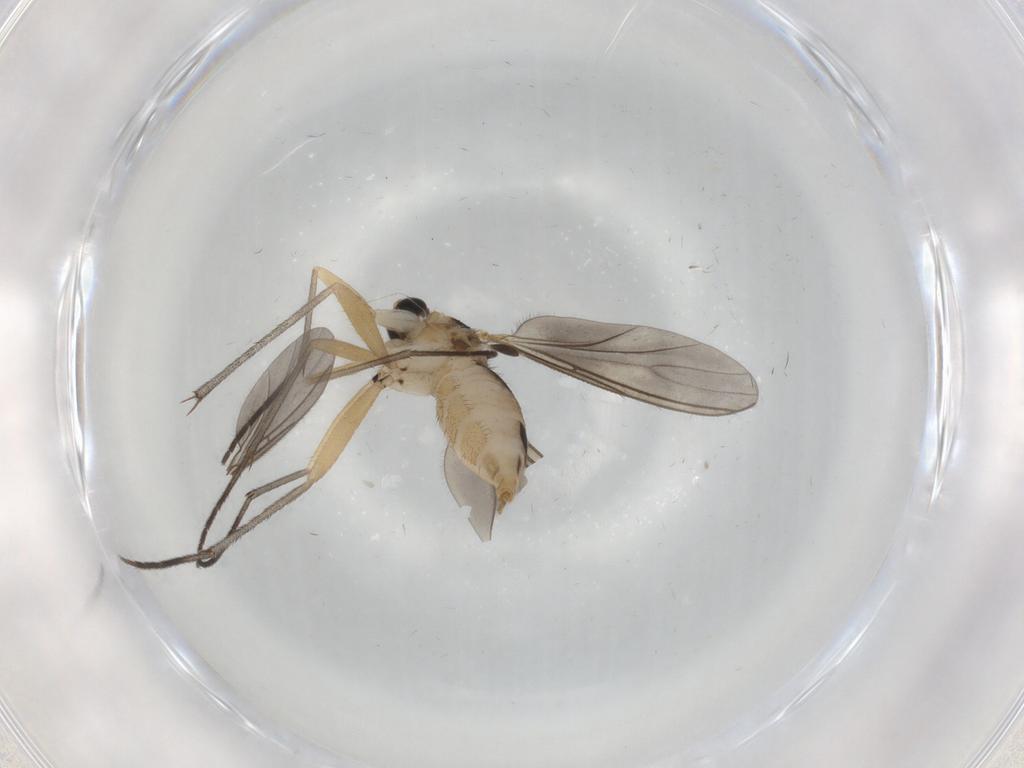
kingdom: Animalia
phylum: Arthropoda
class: Insecta
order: Diptera
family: Sciaridae
